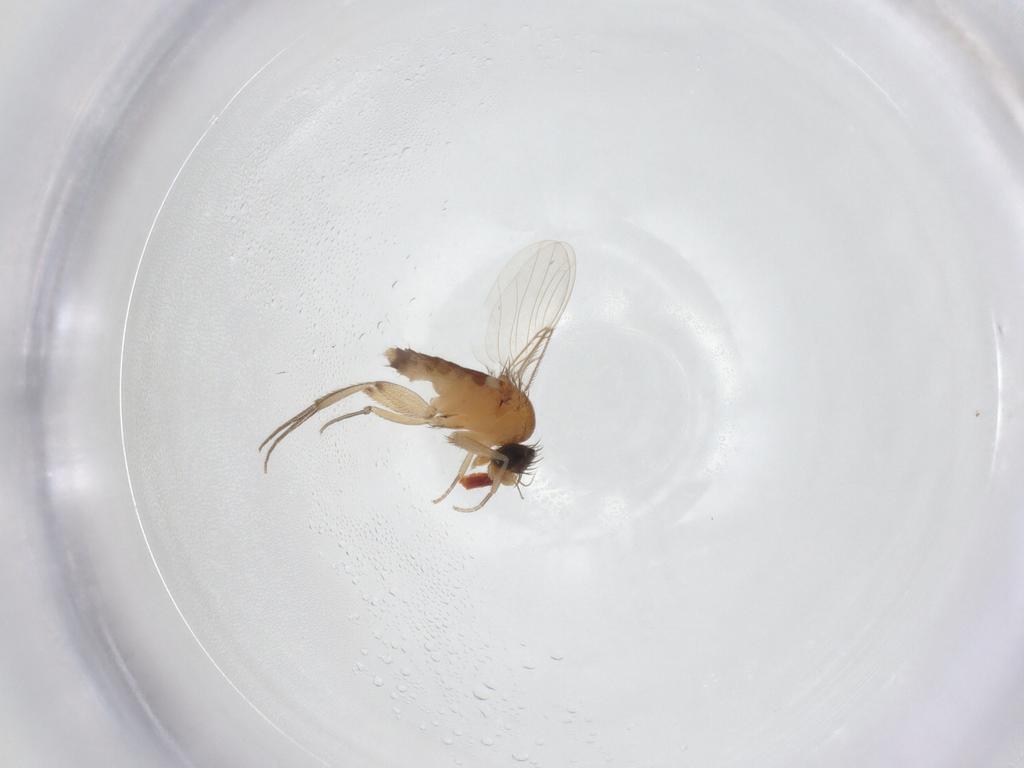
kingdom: Animalia
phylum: Arthropoda
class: Insecta
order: Diptera
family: Phoridae
